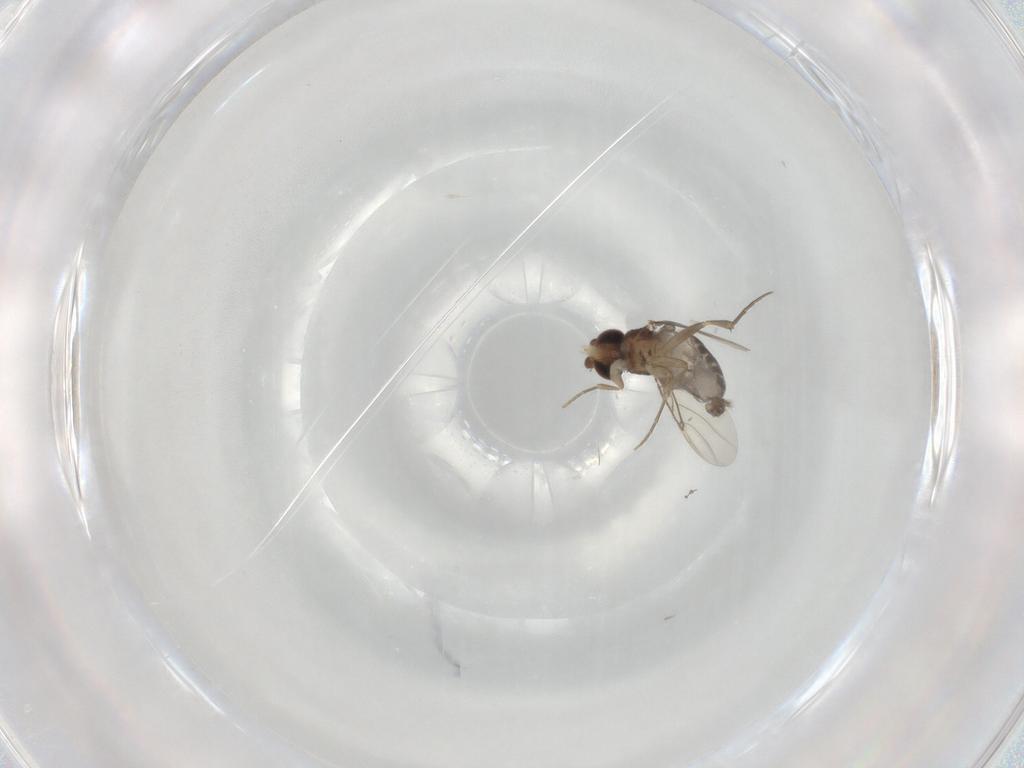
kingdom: Animalia
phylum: Arthropoda
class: Insecta
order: Diptera
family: Phoridae
